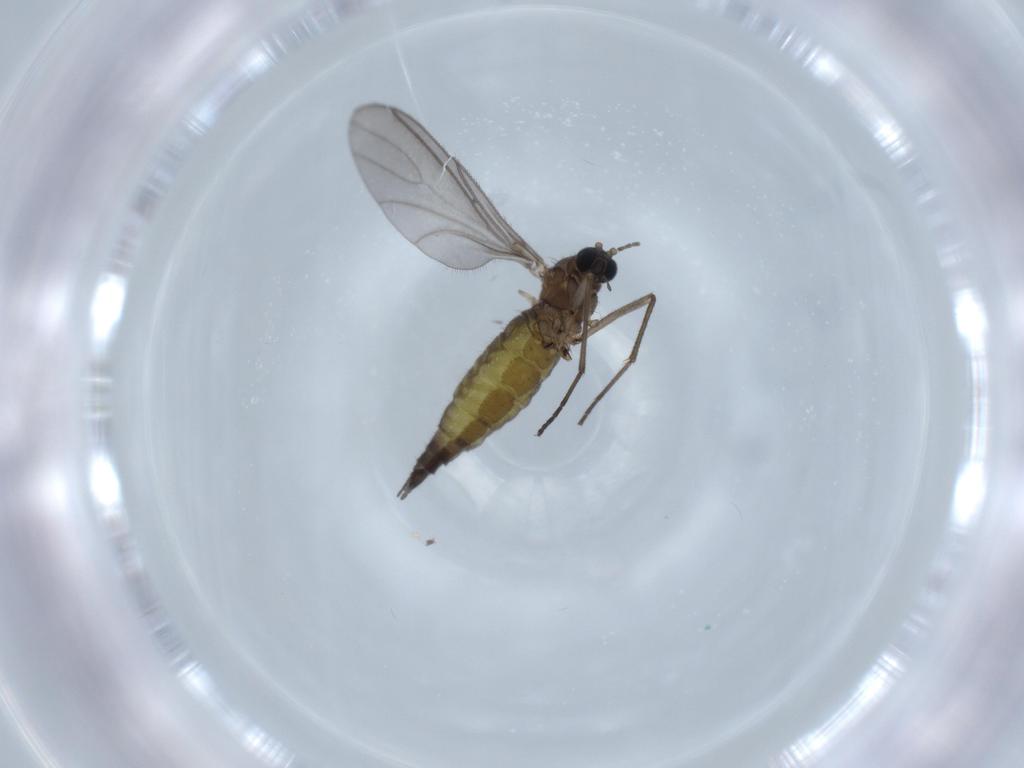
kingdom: Animalia
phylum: Arthropoda
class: Insecta
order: Diptera
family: Sciaridae
